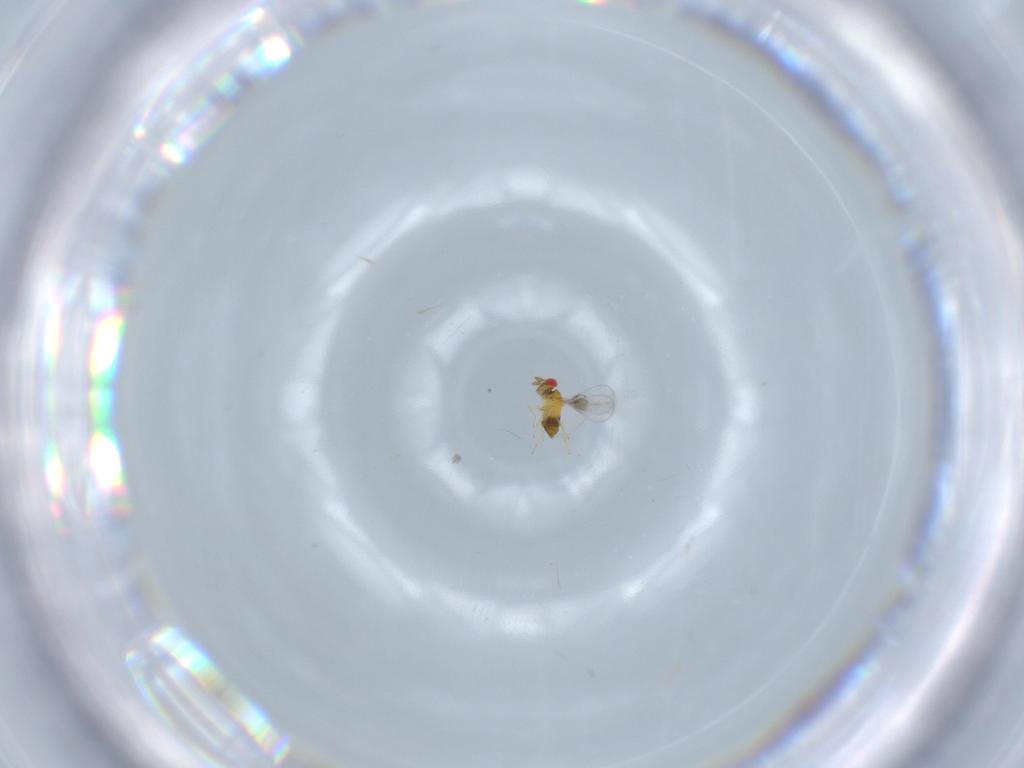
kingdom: Animalia
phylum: Arthropoda
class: Insecta
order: Hymenoptera
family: Trichogrammatidae
